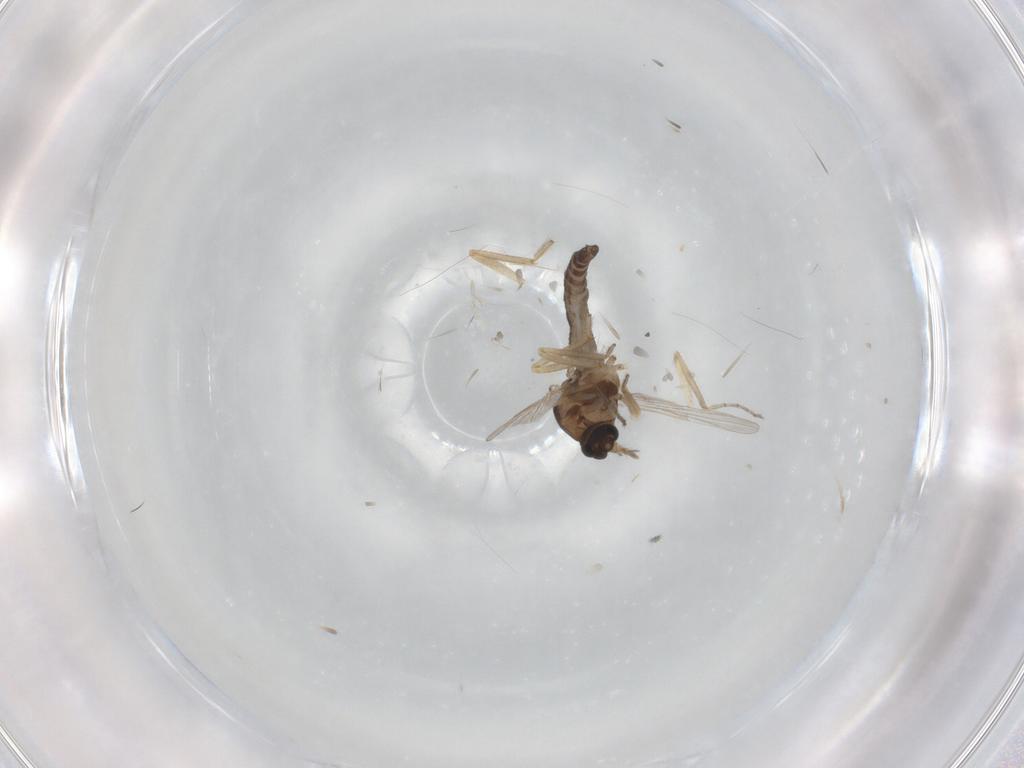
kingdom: Animalia
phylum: Arthropoda
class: Insecta
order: Diptera
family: Ceratopogonidae
